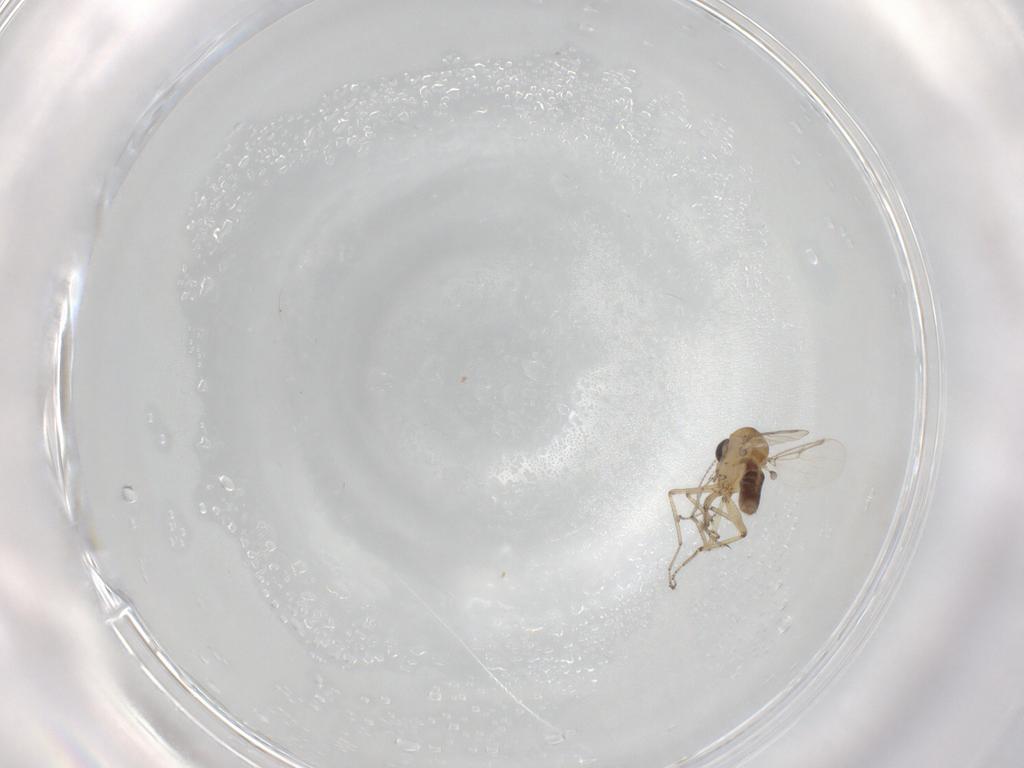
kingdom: Animalia
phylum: Arthropoda
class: Insecta
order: Diptera
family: Ceratopogonidae
